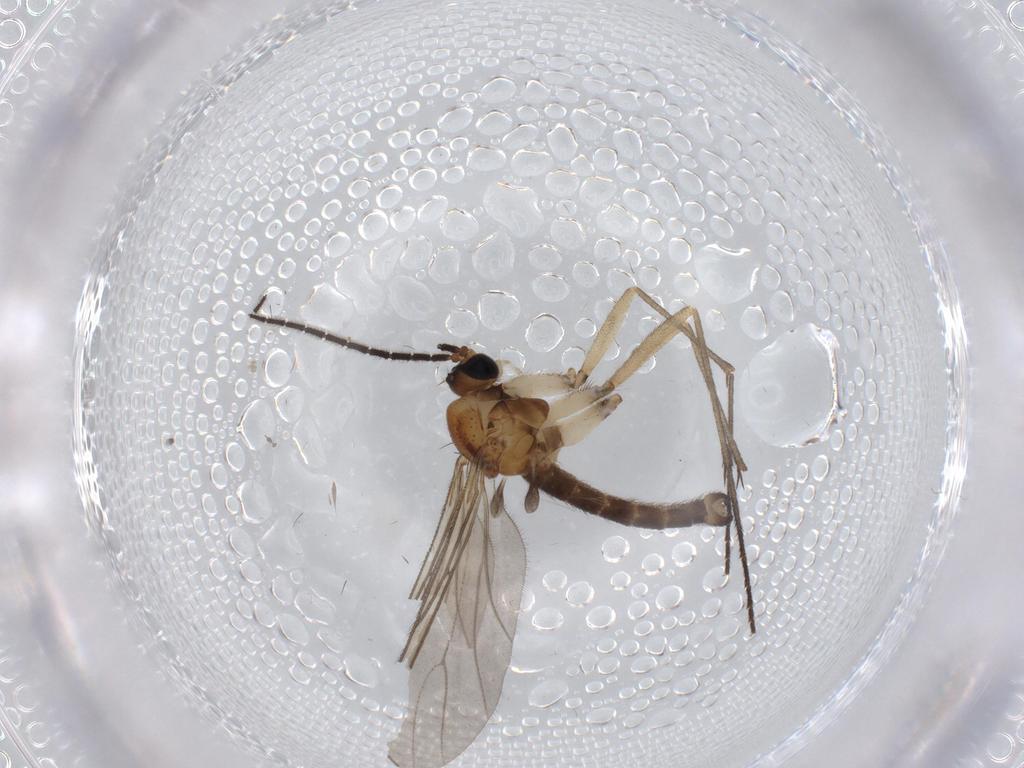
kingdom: Animalia
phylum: Arthropoda
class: Insecta
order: Diptera
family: Sciaridae
